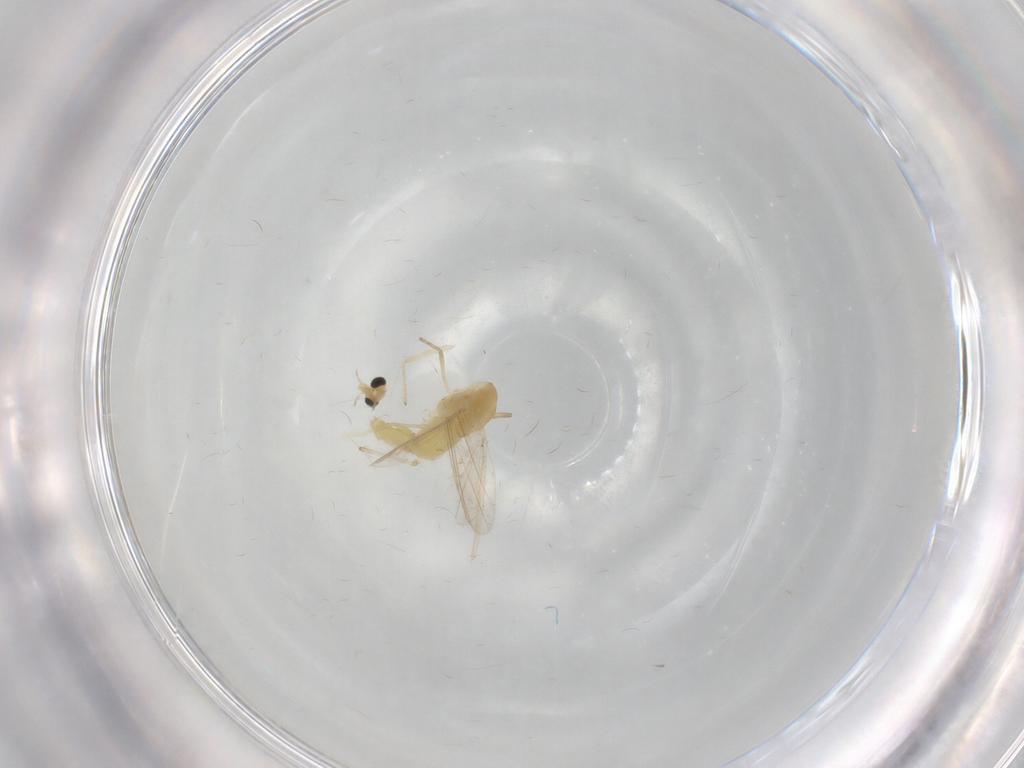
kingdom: Animalia
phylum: Arthropoda
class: Insecta
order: Diptera
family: Chironomidae
